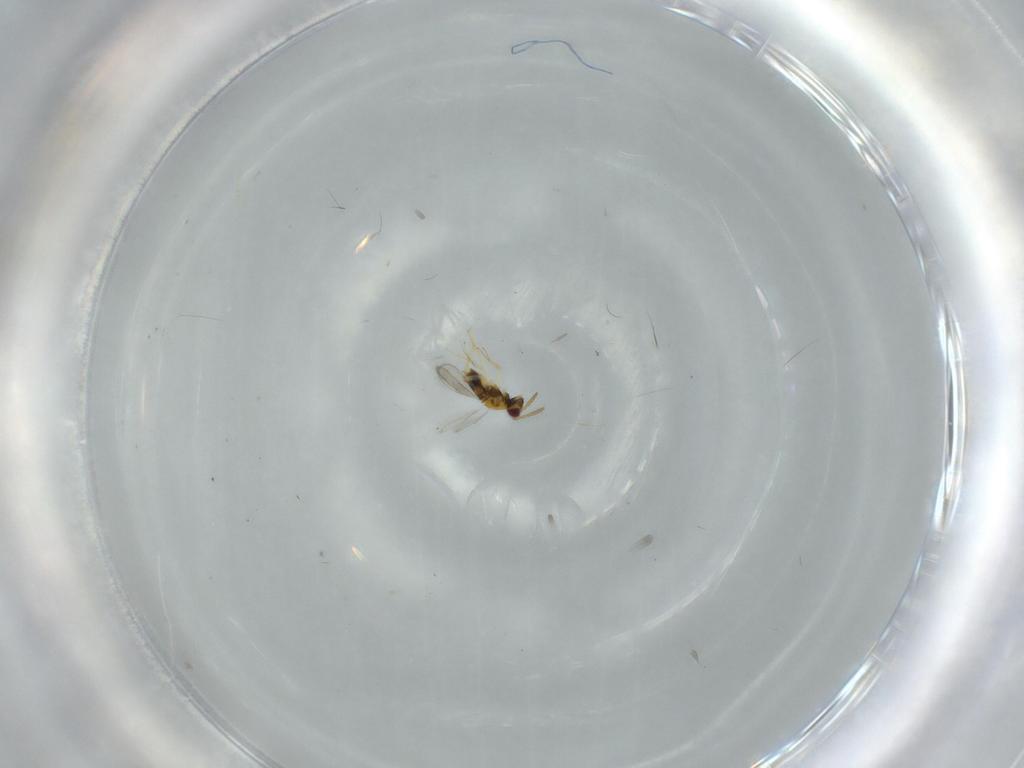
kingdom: Animalia
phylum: Arthropoda
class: Insecta
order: Hymenoptera
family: Aphelinidae
